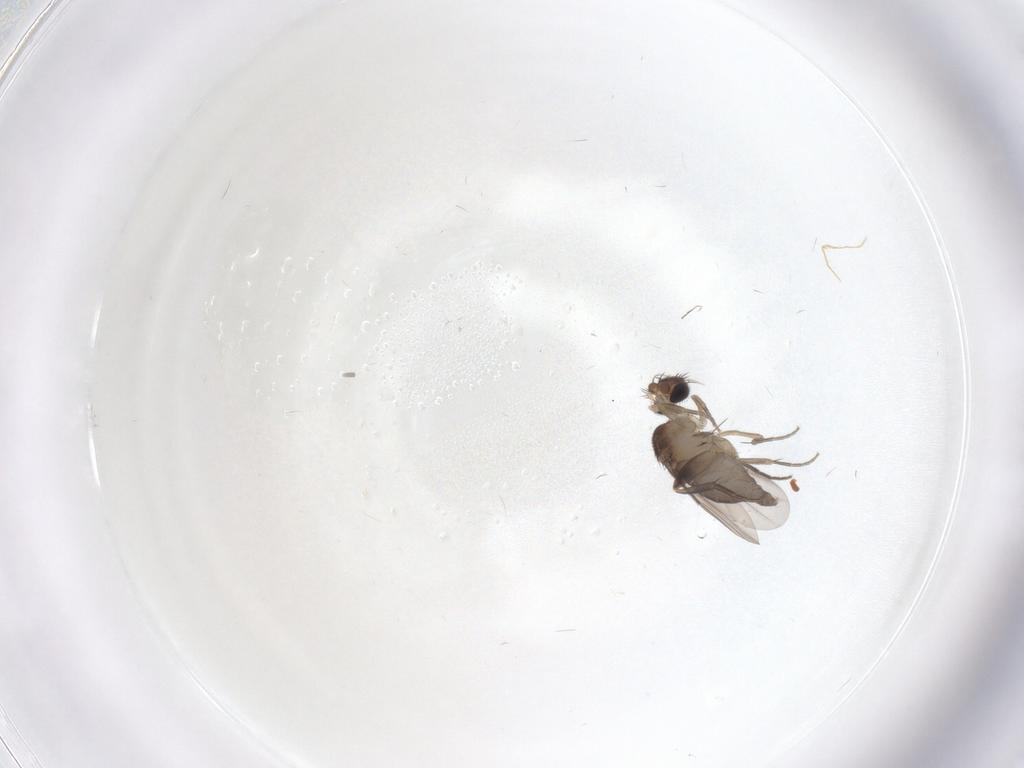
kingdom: Animalia
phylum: Arthropoda
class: Insecta
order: Diptera
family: Phoridae
